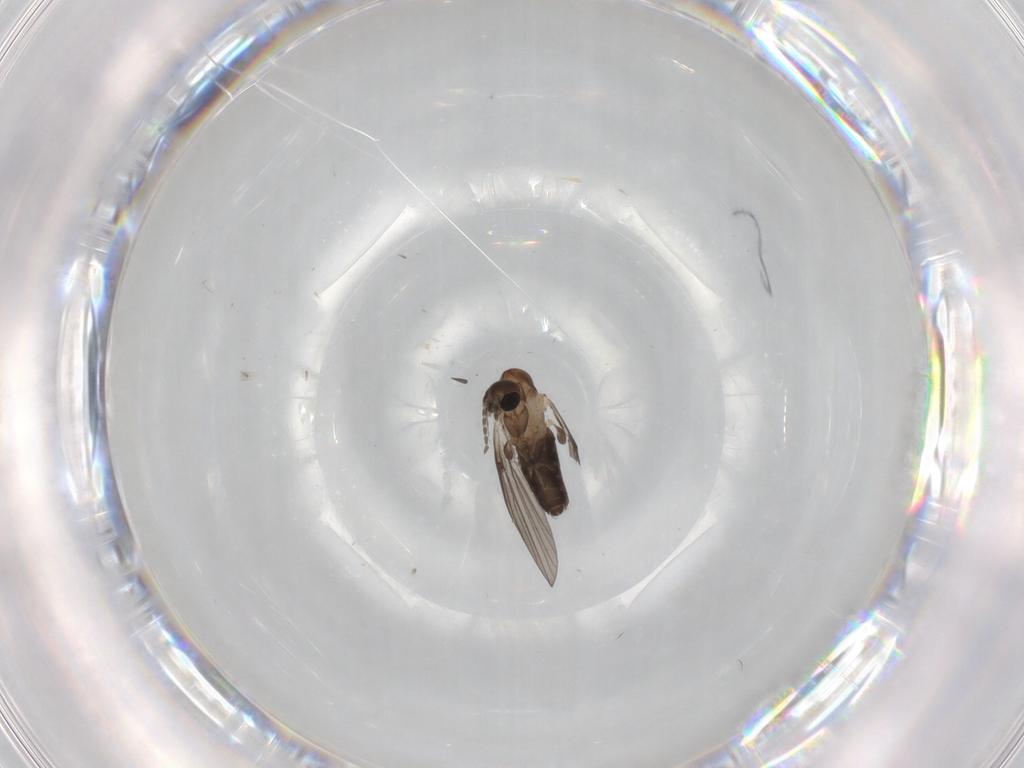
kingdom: Animalia
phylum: Arthropoda
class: Insecta
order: Diptera
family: Psychodidae
